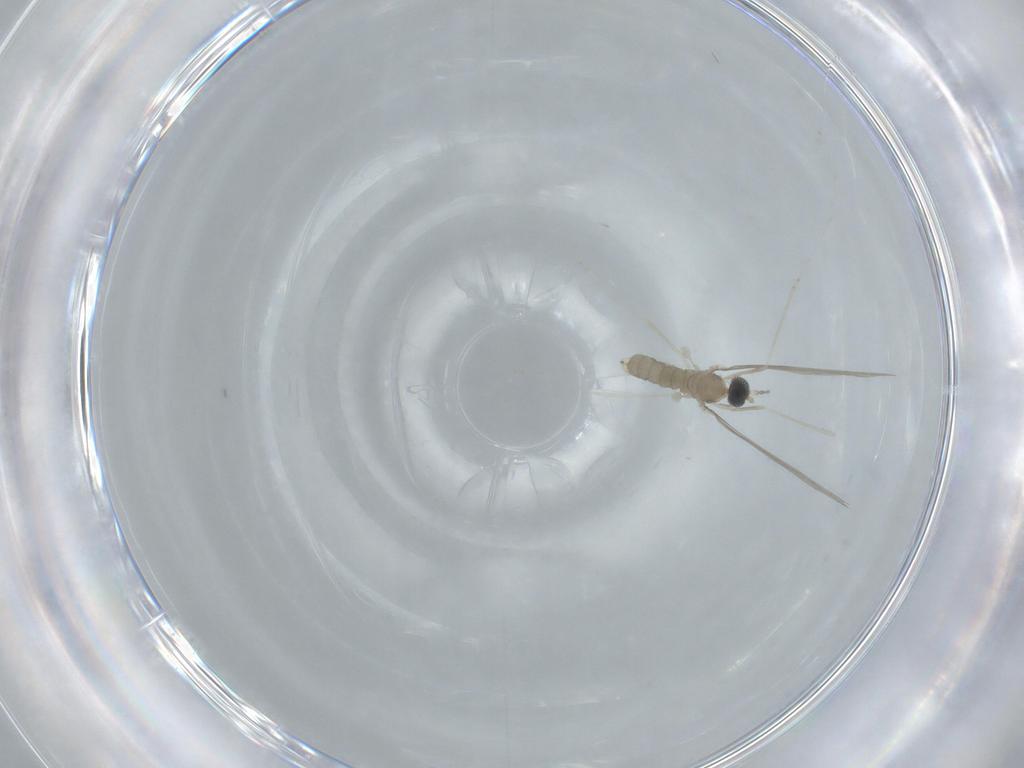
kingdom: Animalia
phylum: Arthropoda
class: Insecta
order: Diptera
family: Cecidomyiidae
